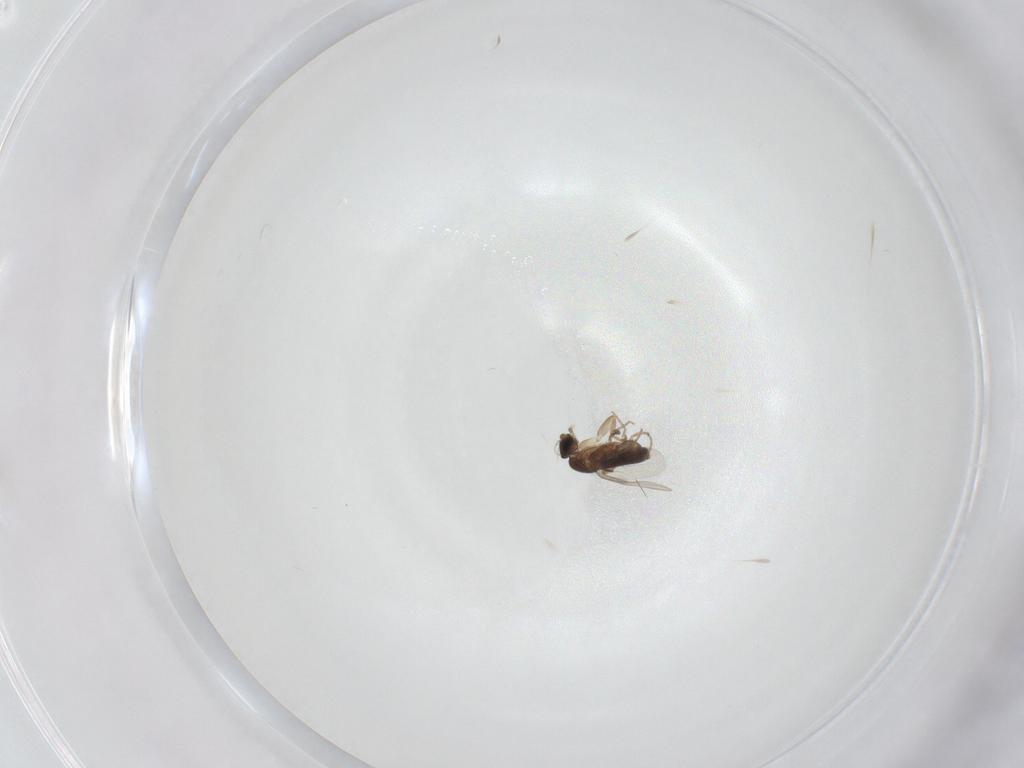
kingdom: Animalia
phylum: Arthropoda
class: Insecta
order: Diptera
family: Phoridae
